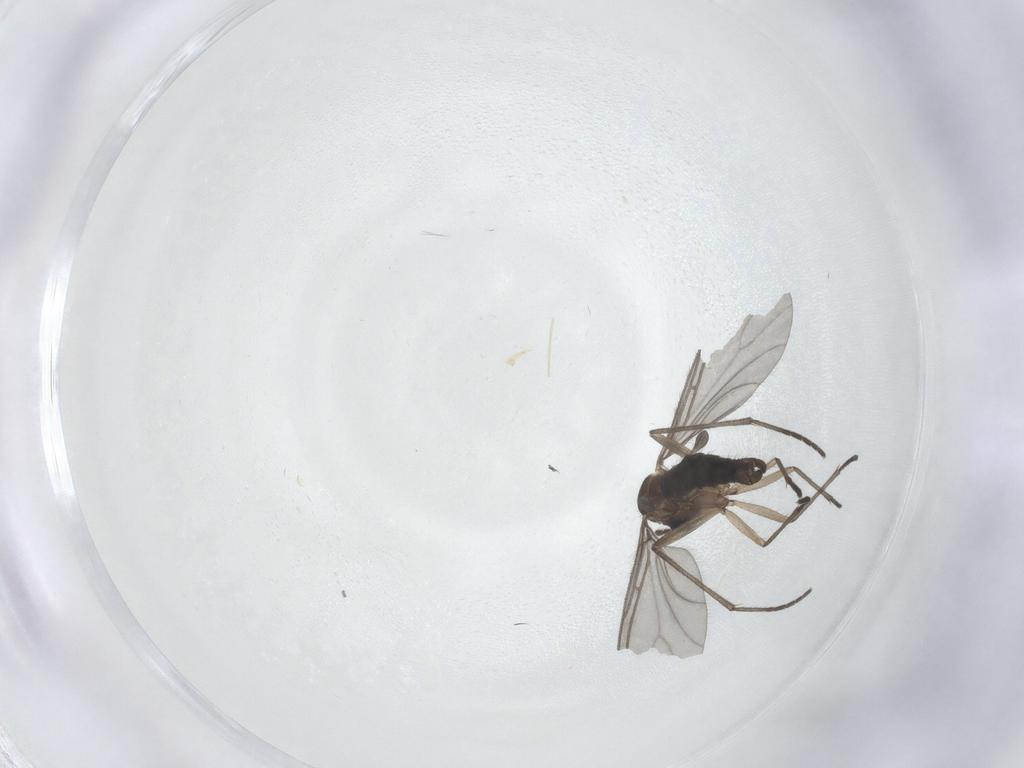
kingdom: Animalia
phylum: Arthropoda
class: Insecta
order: Diptera
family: Sciaridae
